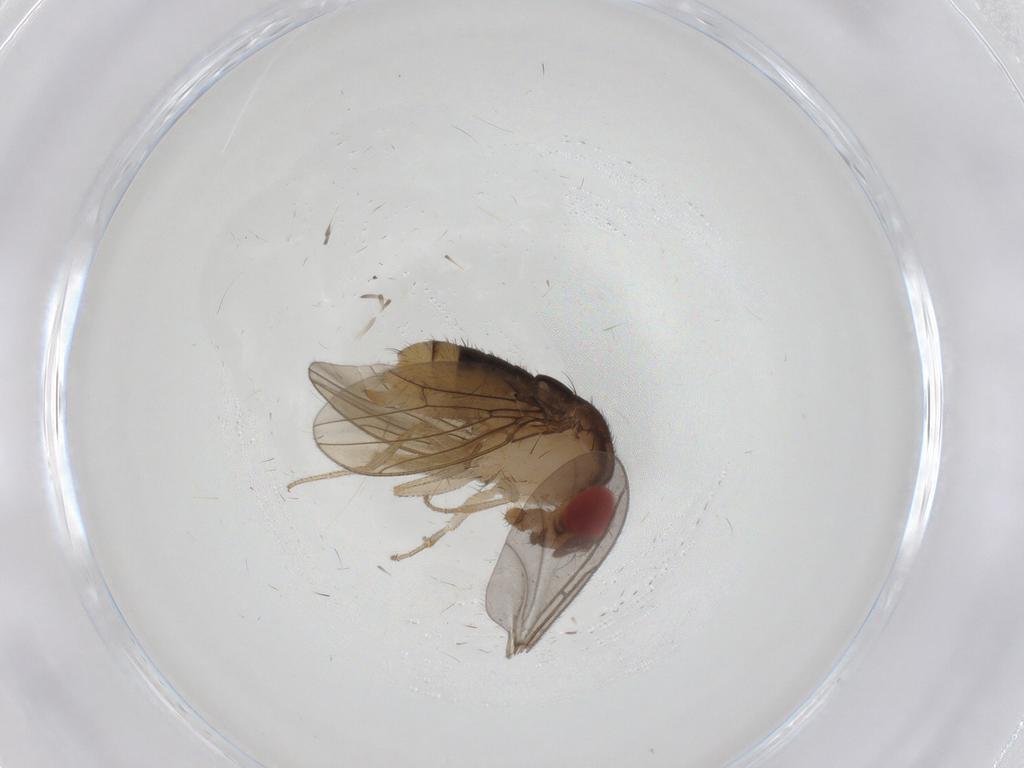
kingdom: Animalia
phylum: Arthropoda
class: Insecta
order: Diptera
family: Drosophilidae
